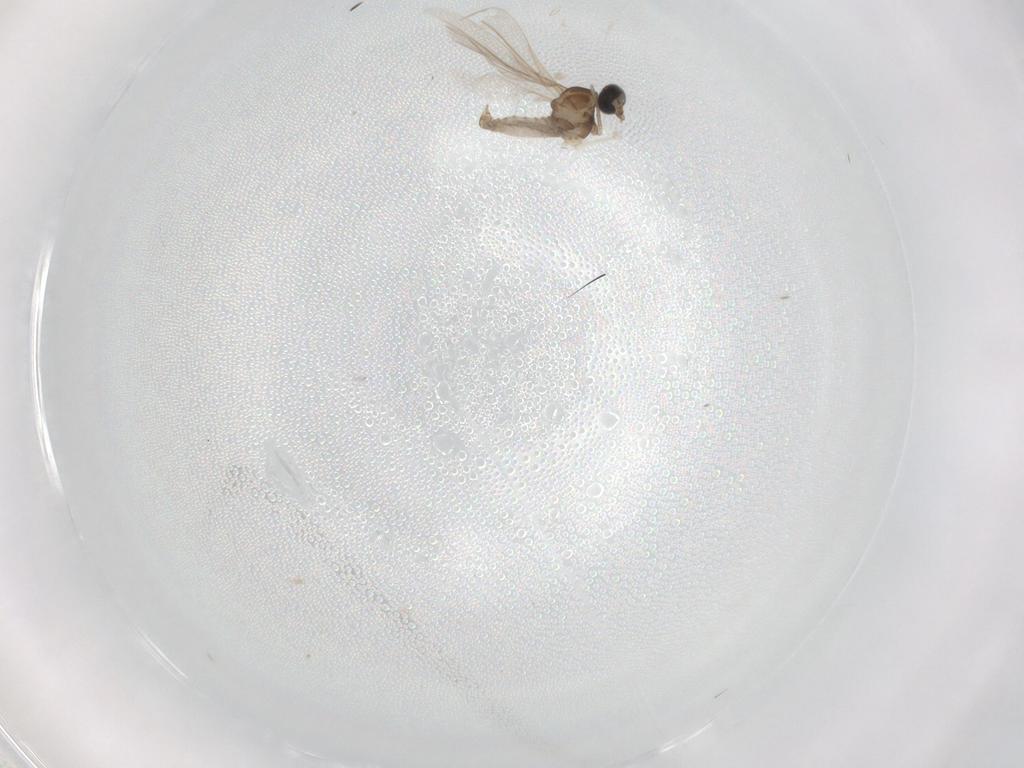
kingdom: Animalia
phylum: Arthropoda
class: Insecta
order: Diptera
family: Cecidomyiidae
